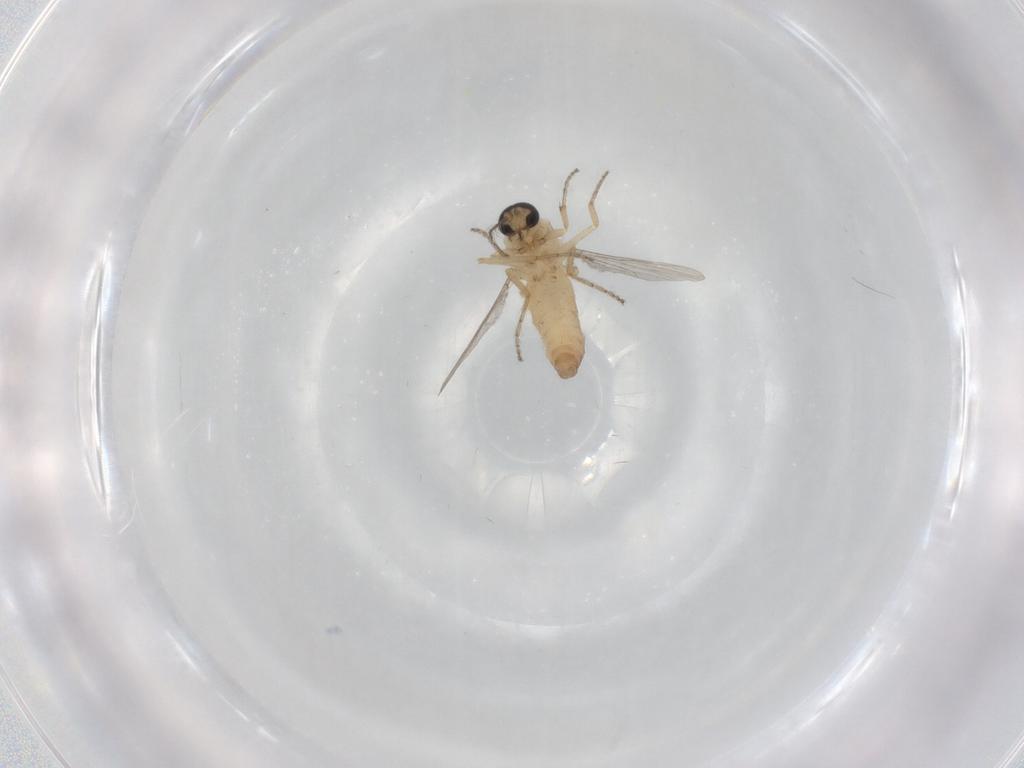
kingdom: Animalia
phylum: Arthropoda
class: Insecta
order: Diptera
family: Ceratopogonidae
